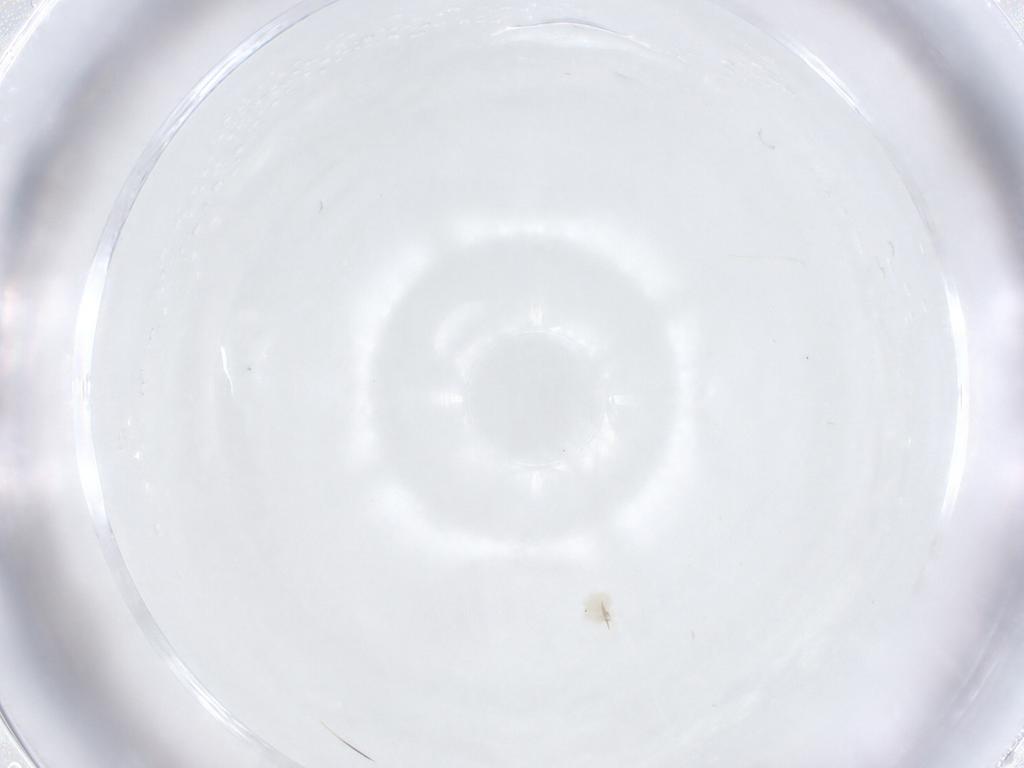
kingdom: Animalia
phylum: Arthropoda
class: Arachnida
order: Trombidiformes
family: Anystidae
